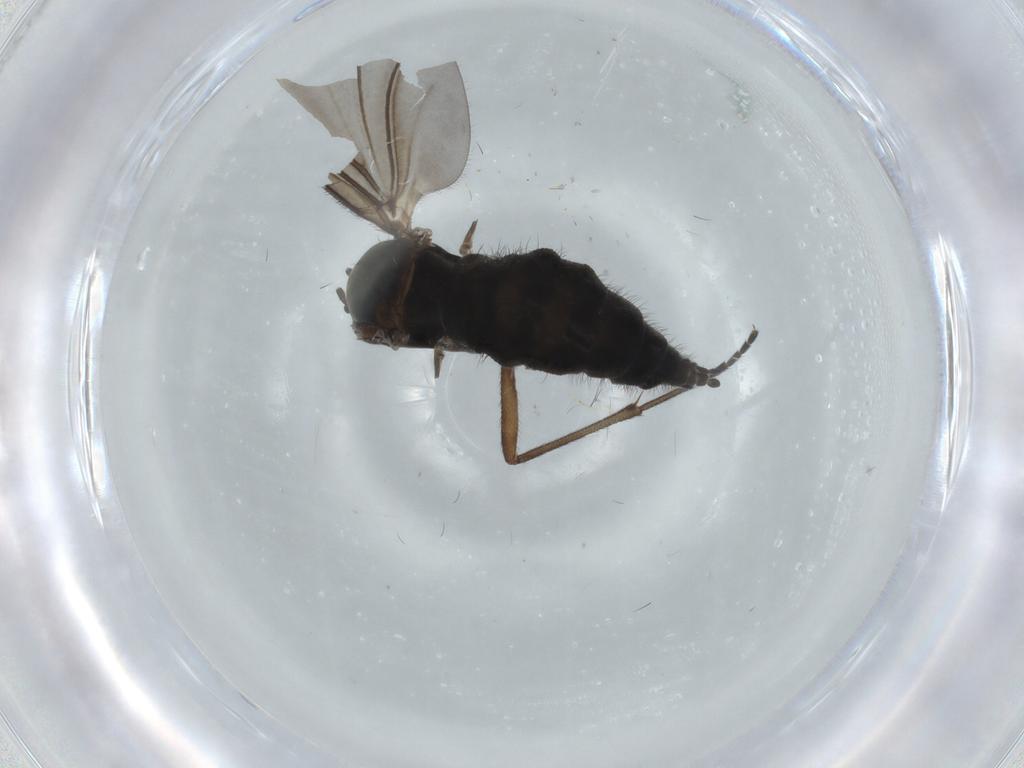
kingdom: Animalia
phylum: Arthropoda
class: Insecta
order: Diptera
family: Sciaridae
